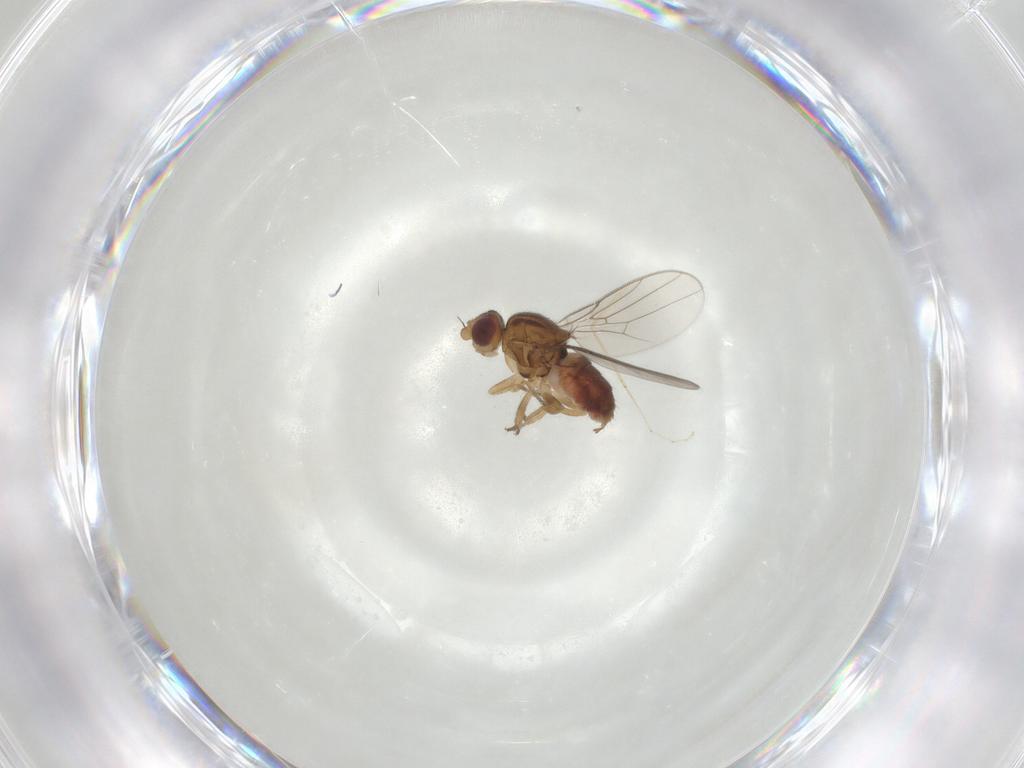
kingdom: Animalia
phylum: Arthropoda
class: Insecta
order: Diptera
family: Chloropidae
